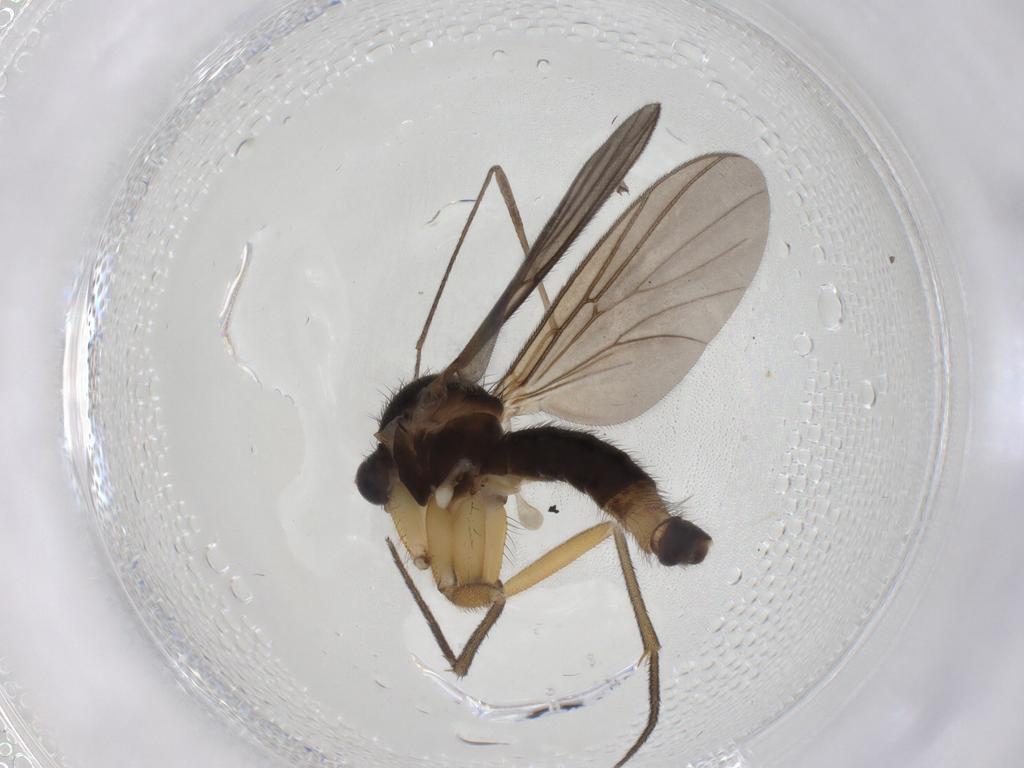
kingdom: Animalia
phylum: Arthropoda
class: Insecta
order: Diptera
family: Mycetophilidae
